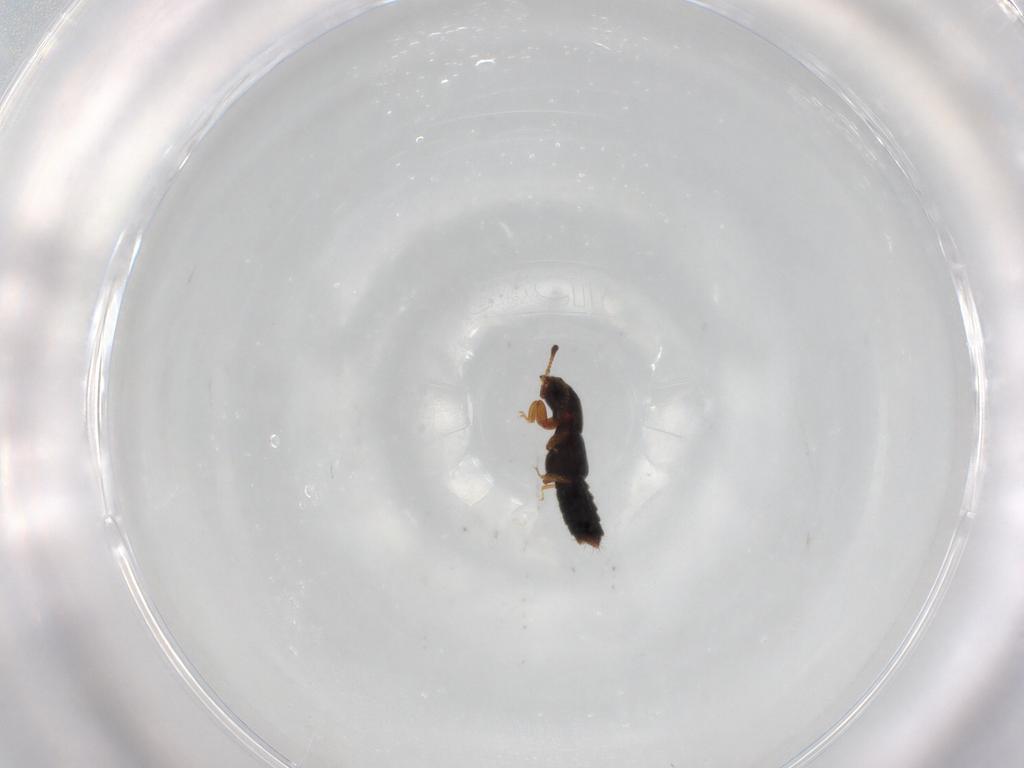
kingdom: Animalia
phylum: Arthropoda
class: Insecta
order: Coleoptera
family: Staphylinidae
